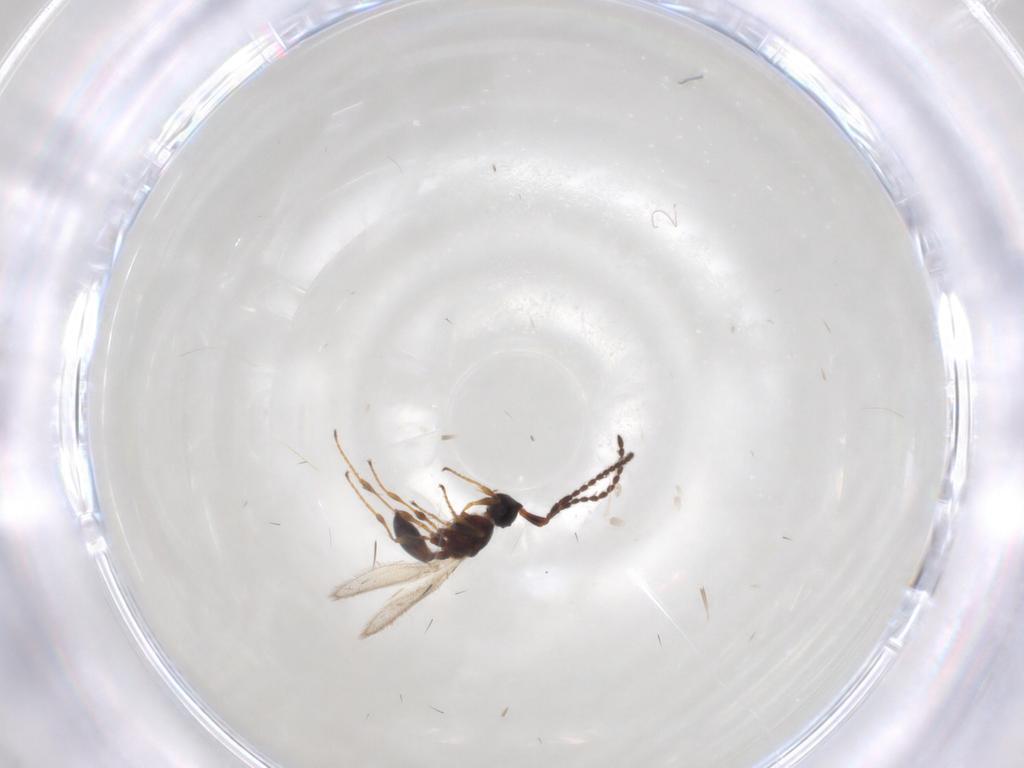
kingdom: Animalia
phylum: Arthropoda
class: Insecta
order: Hymenoptera
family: Diapriidae
